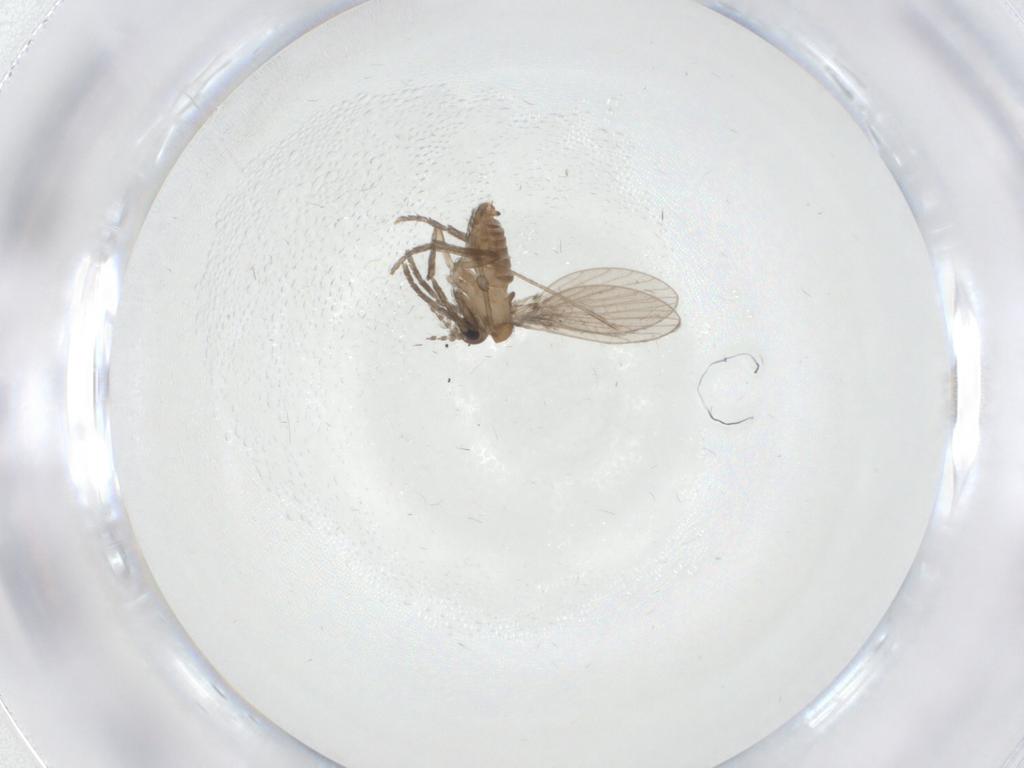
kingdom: Animalia
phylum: Arthropoda
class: Insecta
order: Diptera
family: Cecidomyiidae
